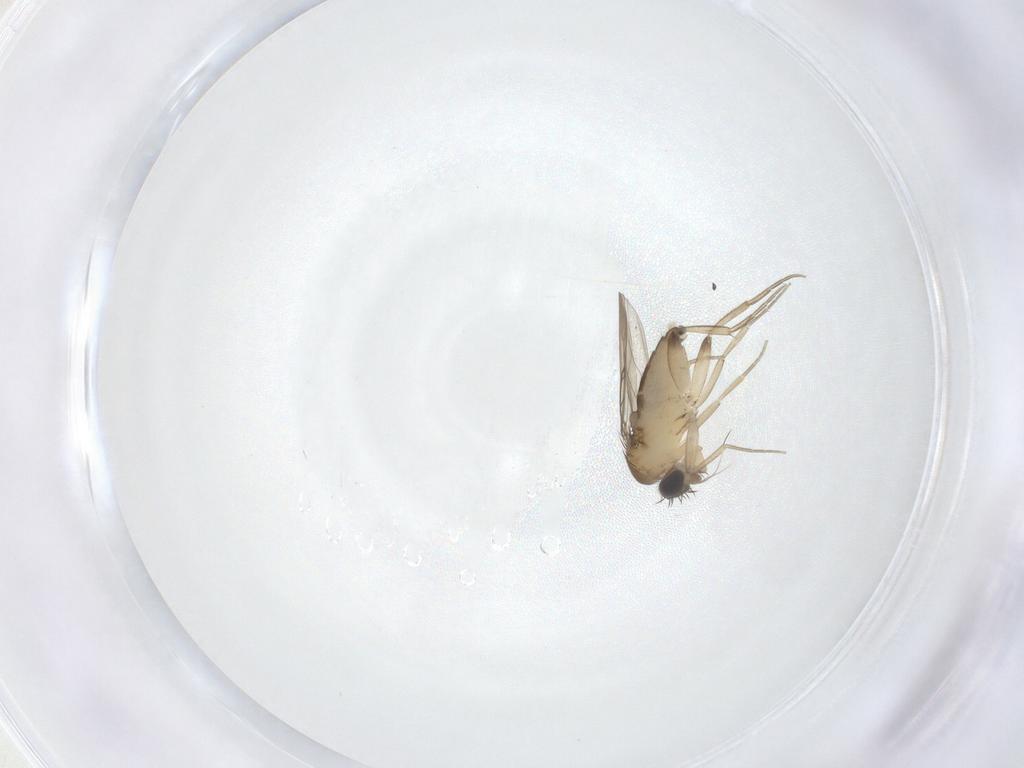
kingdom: Animalia
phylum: Arthropoda
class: Insecta
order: Diptera
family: Phoridae
